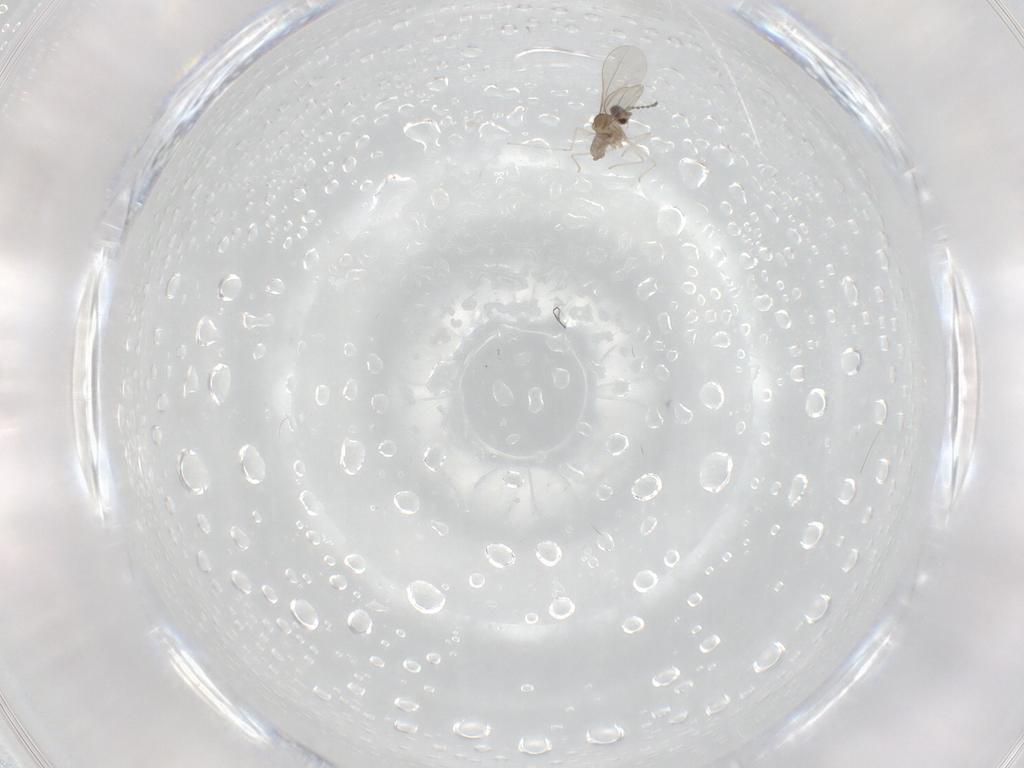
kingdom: Animalia
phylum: Arthropoda
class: Insecta
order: Diptera
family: Cecidomyiidae
